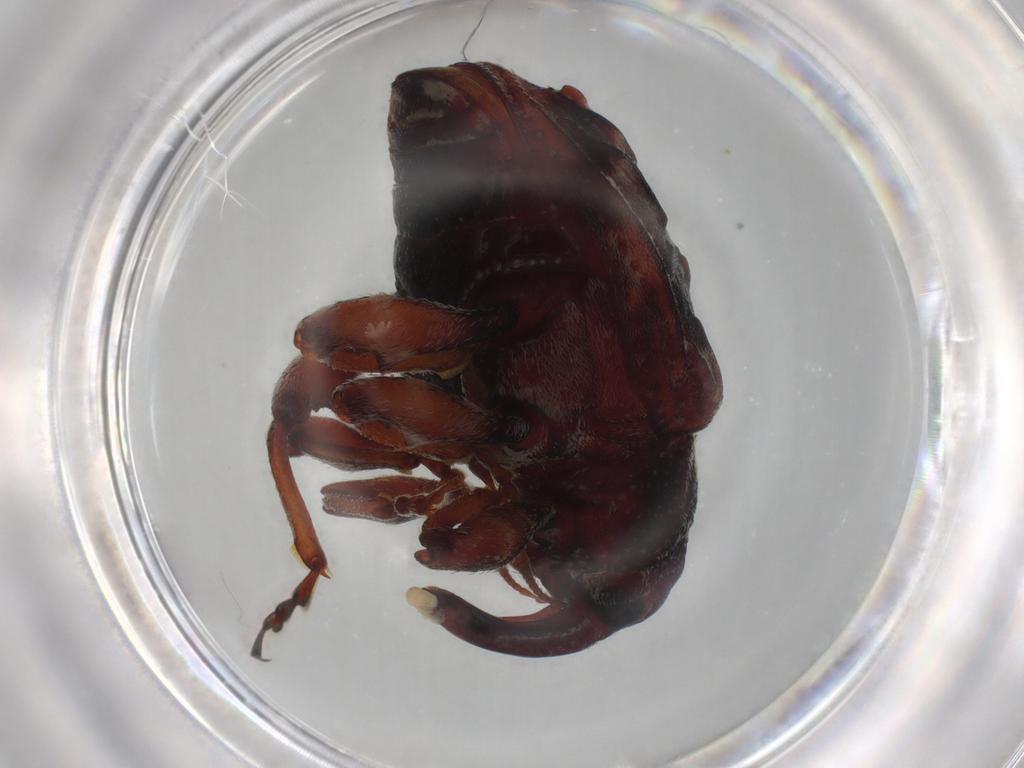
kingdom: Animalia
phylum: Arthropoda
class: Insecta
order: Coleoptera
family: Curculionidae
